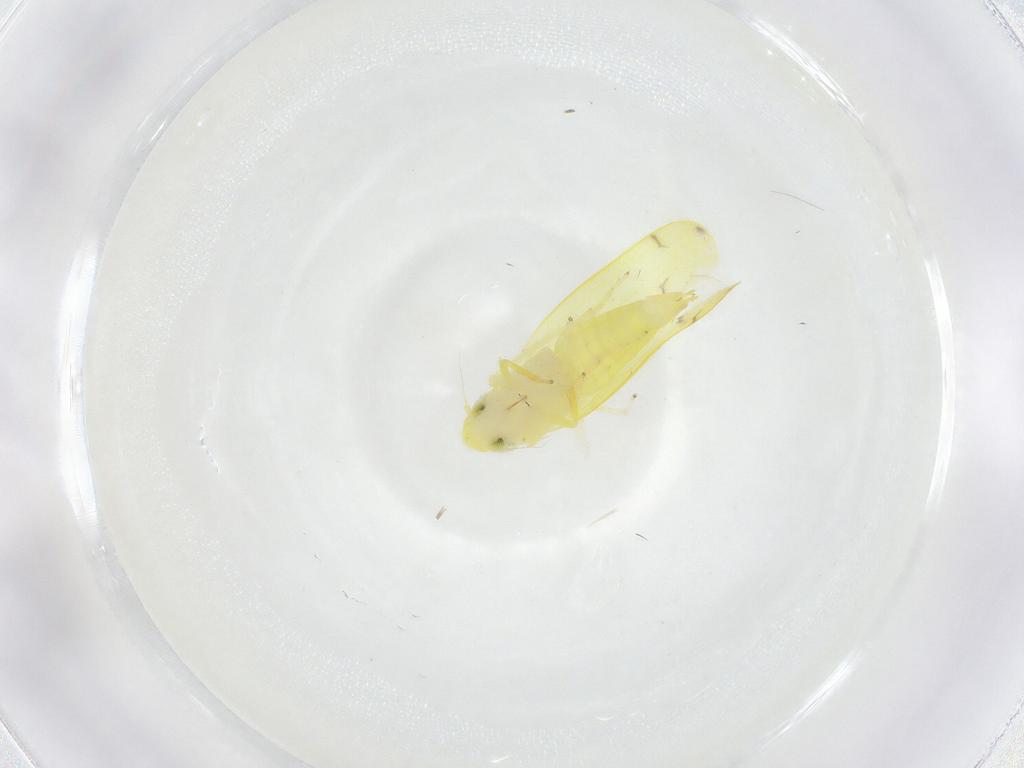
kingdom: Animalia
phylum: Arthropoda
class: Insecta
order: Hemiptera
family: Cicadellidae
